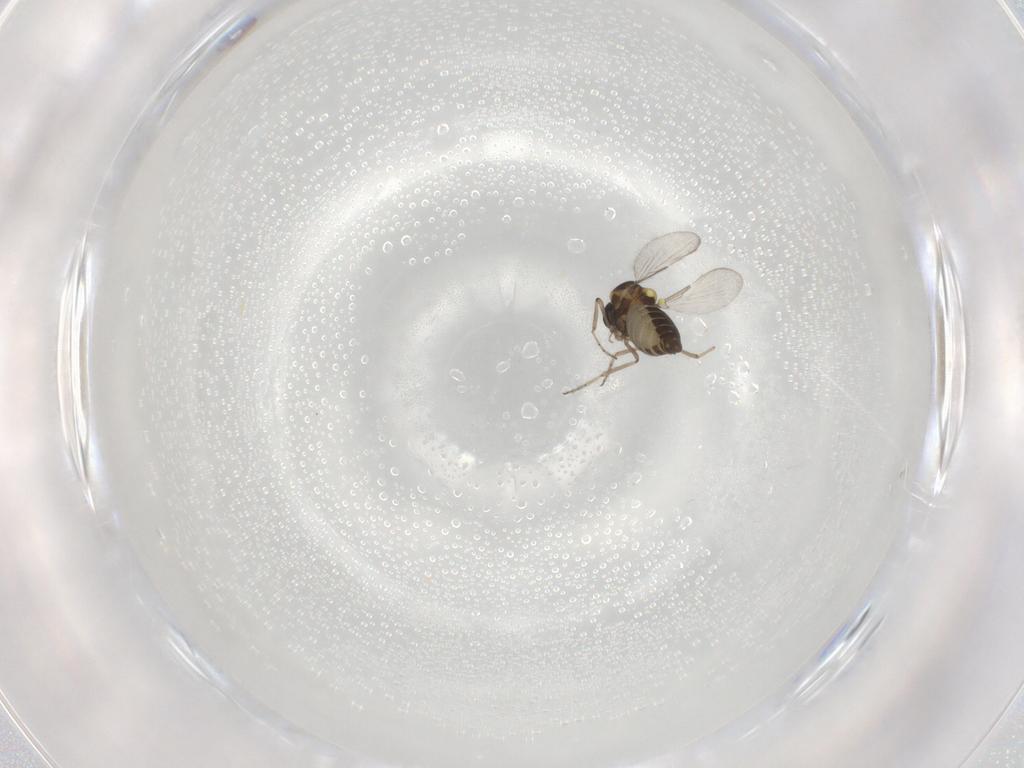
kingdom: Animalia
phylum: Arthropoda
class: Insecta
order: Diptera
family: Ceratopogonidae
